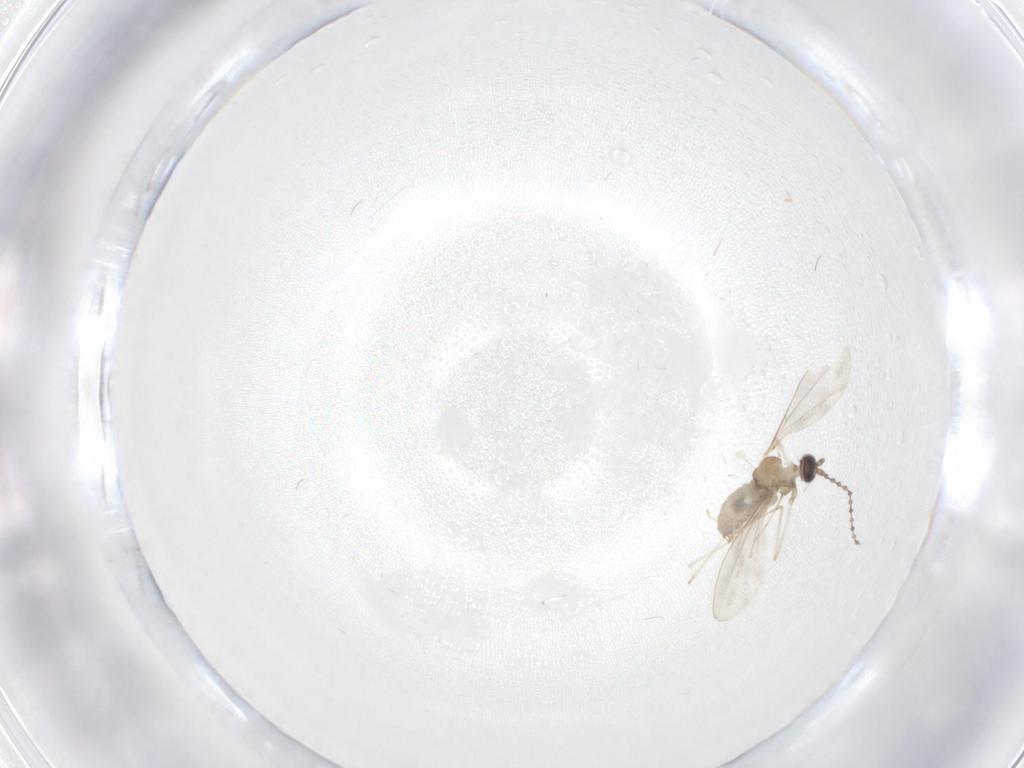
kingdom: Animalia
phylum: Arthropoda
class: Insecta
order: Diptera
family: Cecidomyiidae
